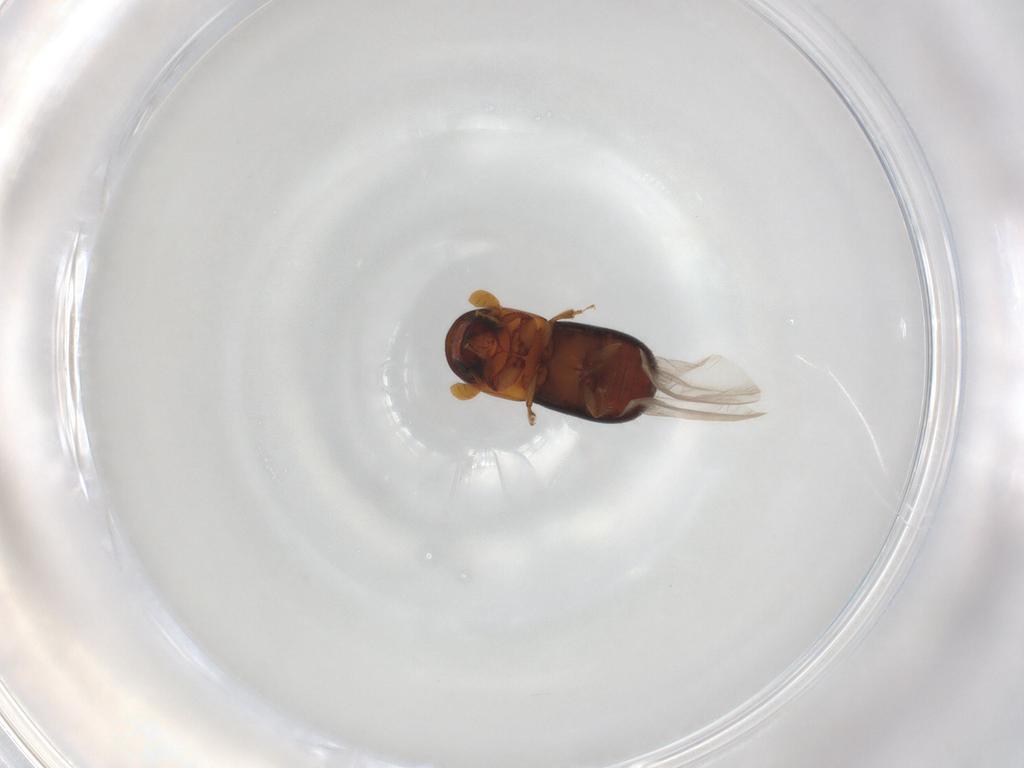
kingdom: Animalia
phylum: Arthropoda
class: Insecta
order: Coleoptera
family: Curculionidae
